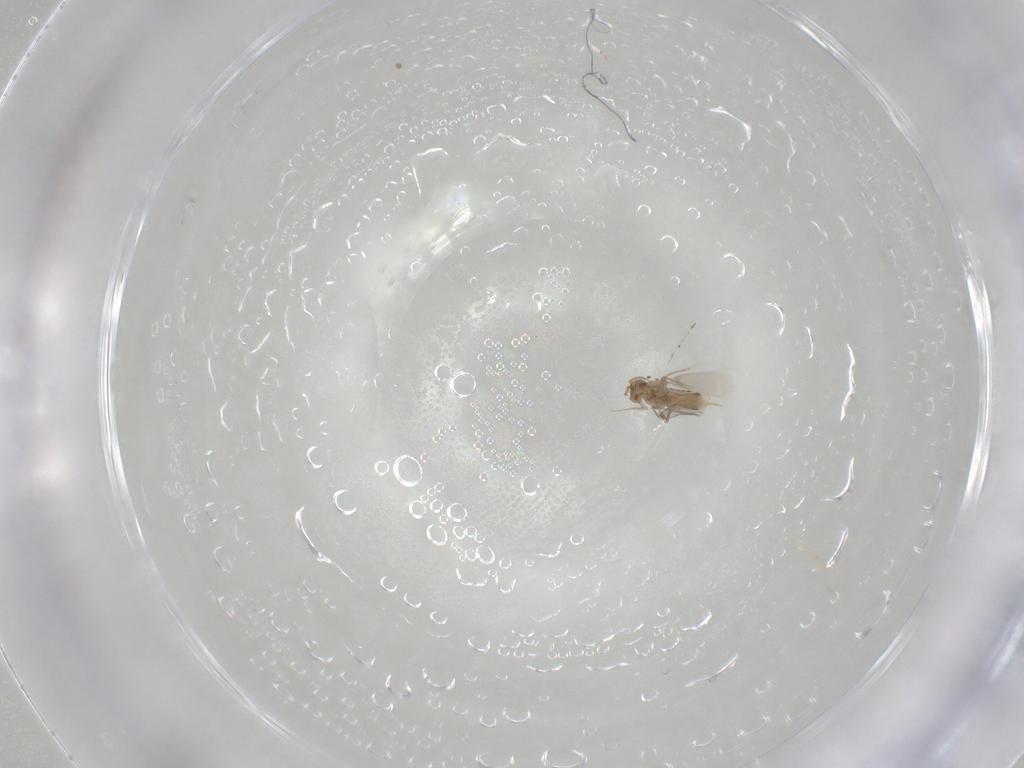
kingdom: Animalia
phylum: Arthropoda
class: Insecta
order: Hymenoptera
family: Aphelinidae
